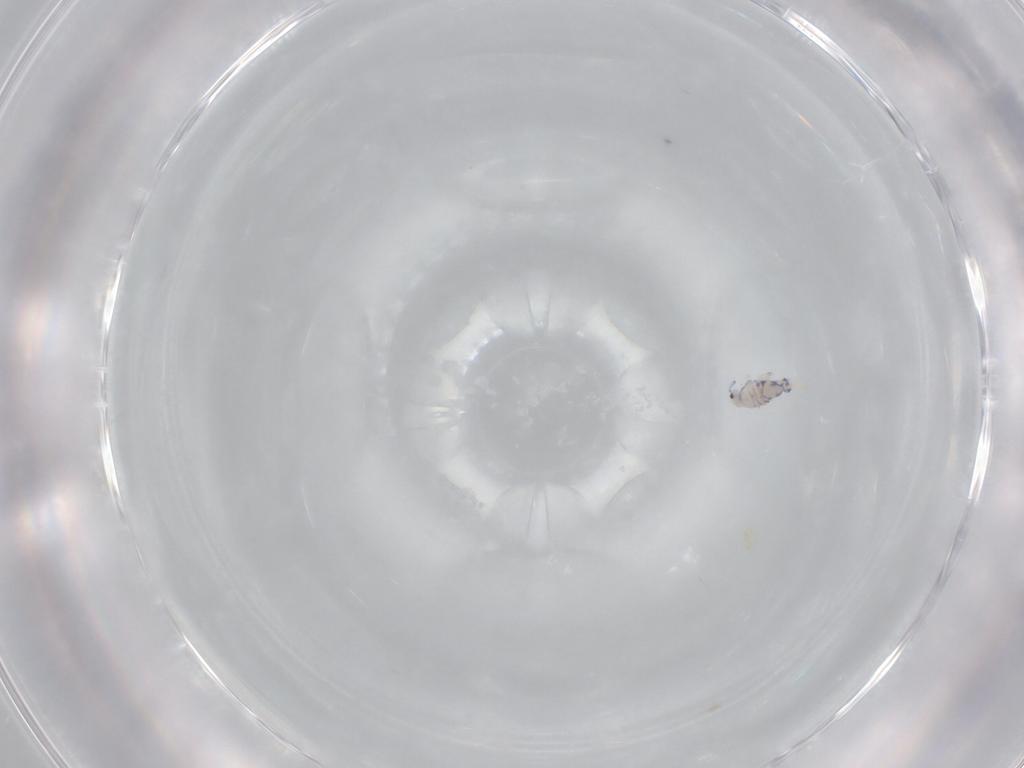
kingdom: Animalia
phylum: Arthropoda
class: Collembola
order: Entomobryomorpha
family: Entomobryidae
